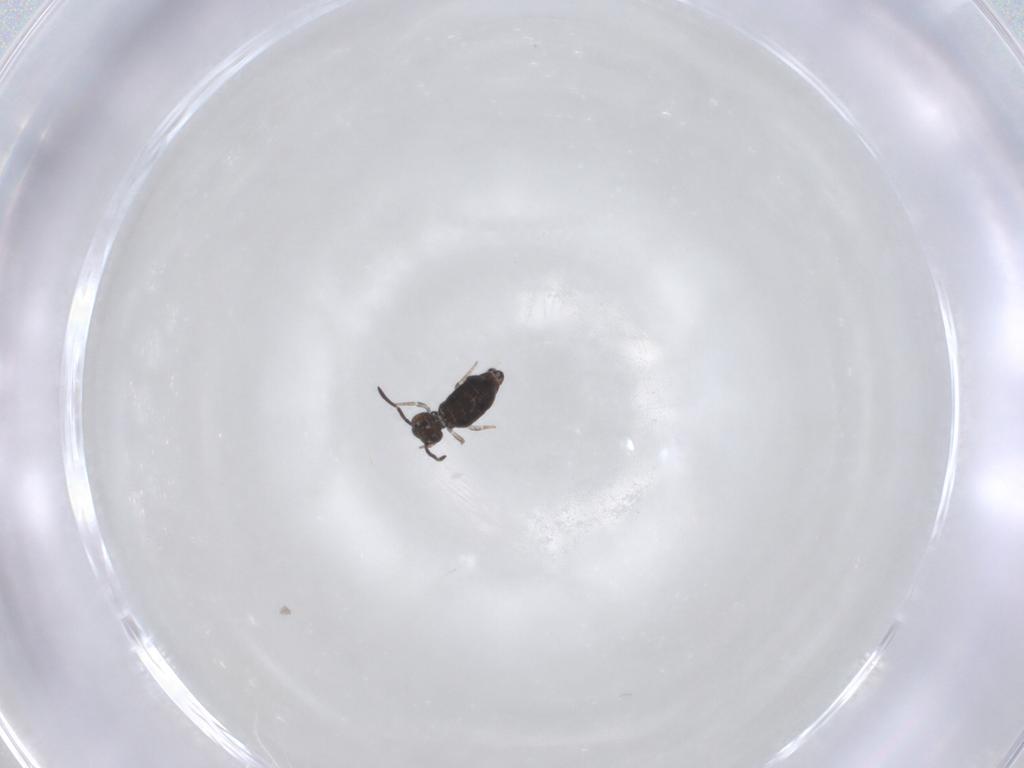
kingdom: Animalia
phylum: Arthropoda
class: Collembola
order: Symphypleona
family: Katiannidae
